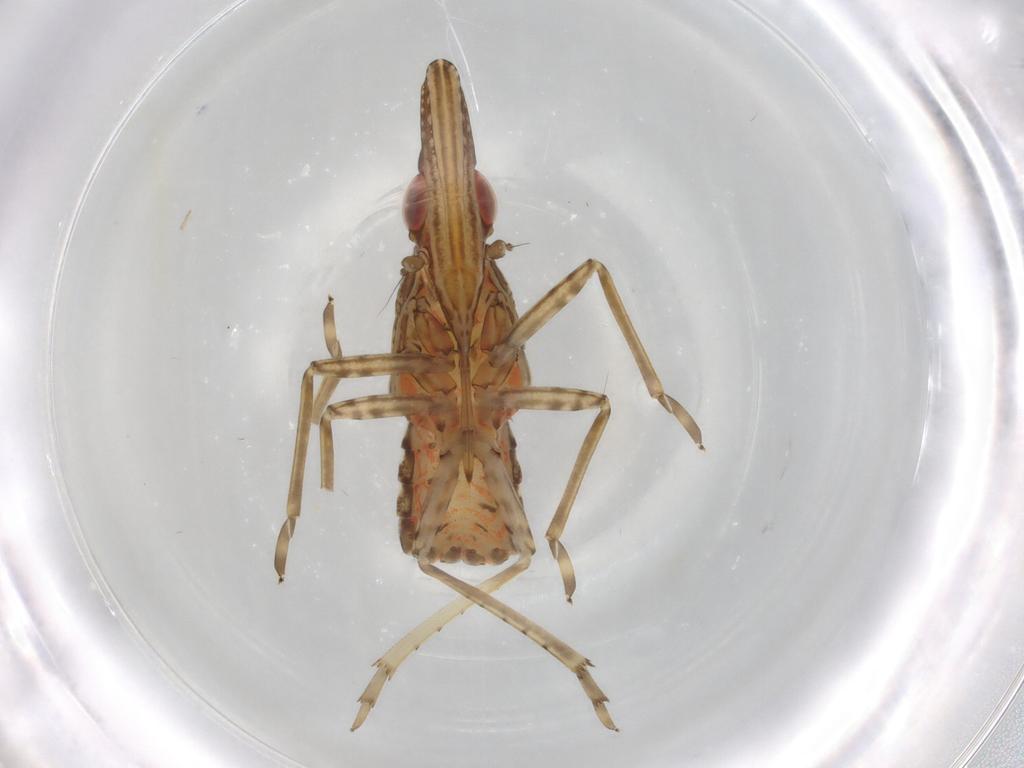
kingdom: Animalia
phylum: Arthropoda
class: Insecta
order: Hemiptera
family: Fulgoroidea_incertae_sedis
